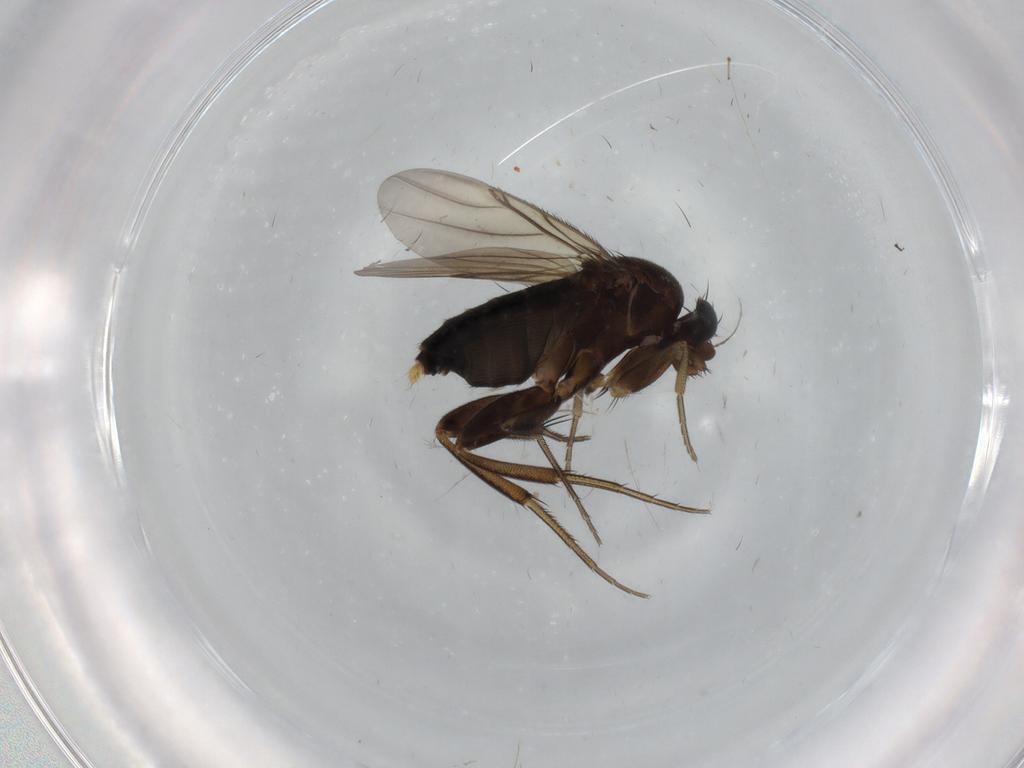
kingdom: Animalia
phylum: Arthropoda
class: Insecta
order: Diptera
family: Phoridae
